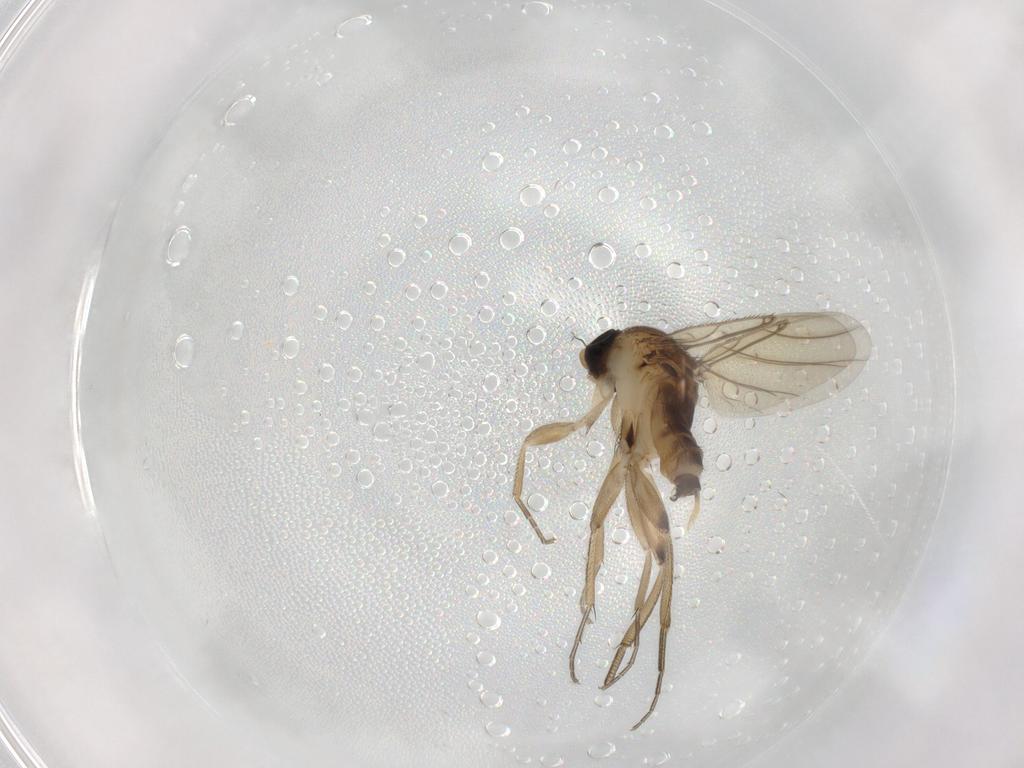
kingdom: Animalia
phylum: Arthropoda
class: Insecta
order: Diptera
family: Phoridae
